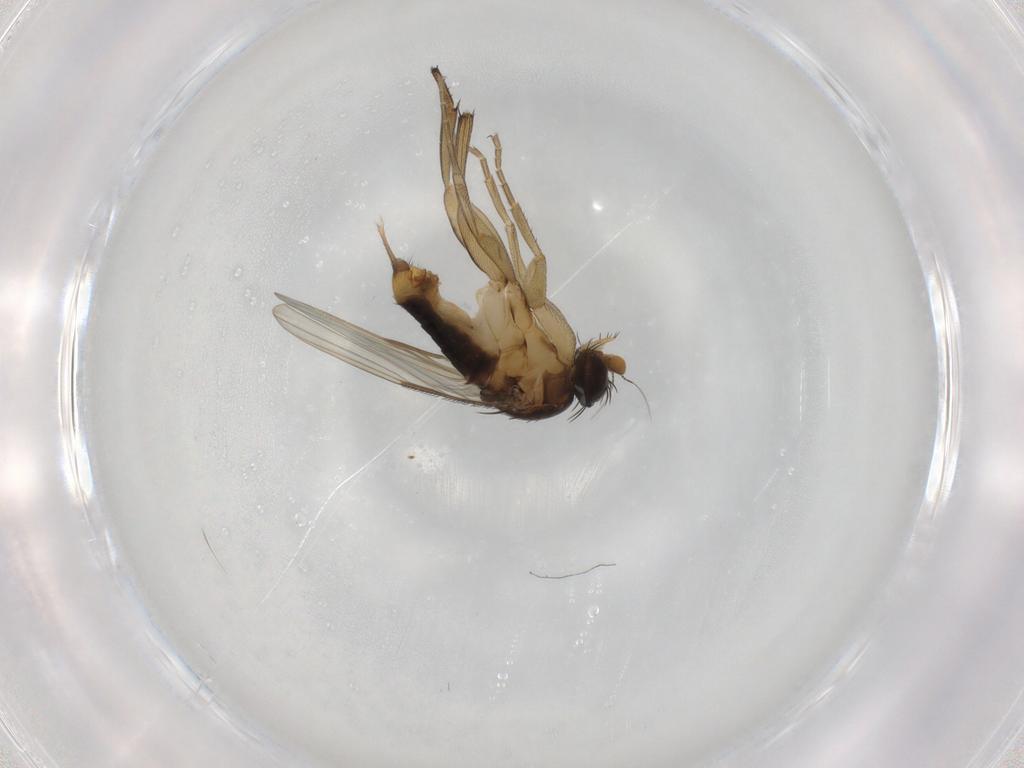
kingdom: Animalia
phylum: Arthropoda
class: Insecta
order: Diptera
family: Phoridae
